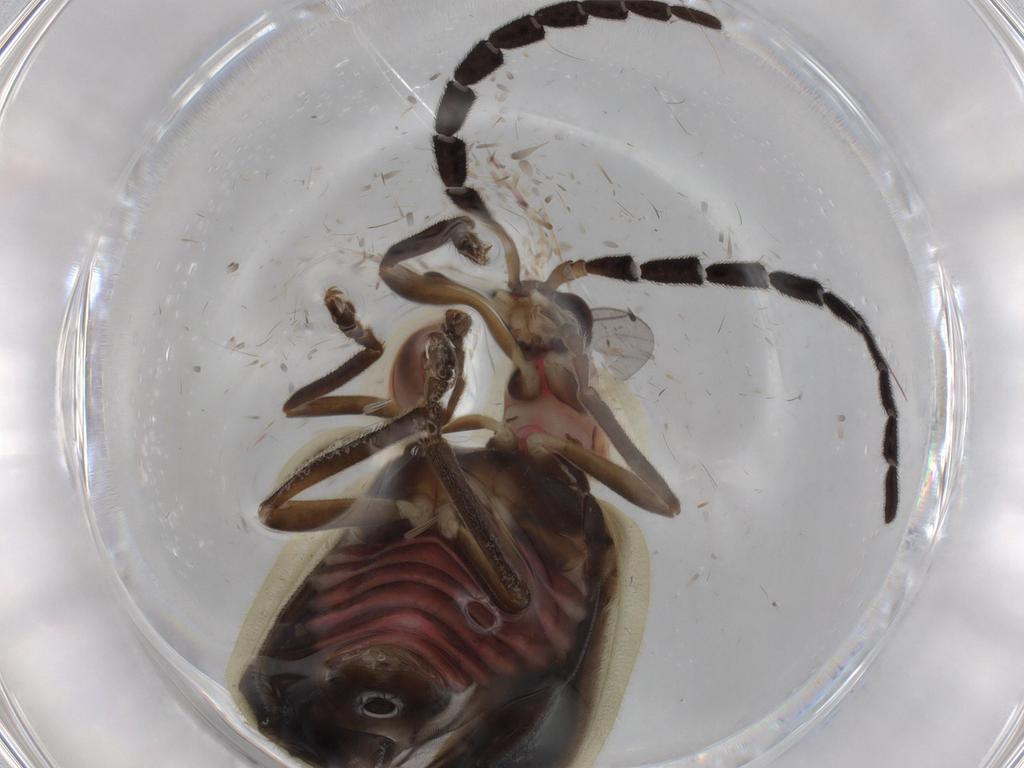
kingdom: Animalia
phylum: Arthropoda
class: Insecta
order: Coleoptera
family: Lampyridae
